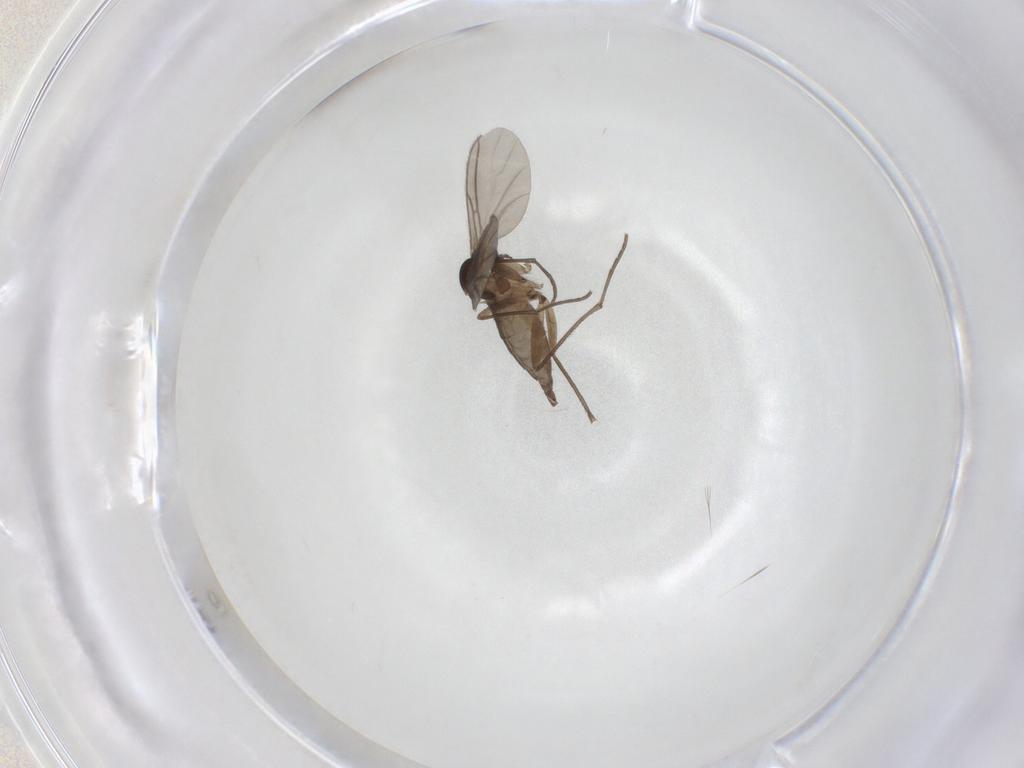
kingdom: Animalia
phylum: Arthropoda
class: Insecta
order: Diptera
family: Sciaridae
